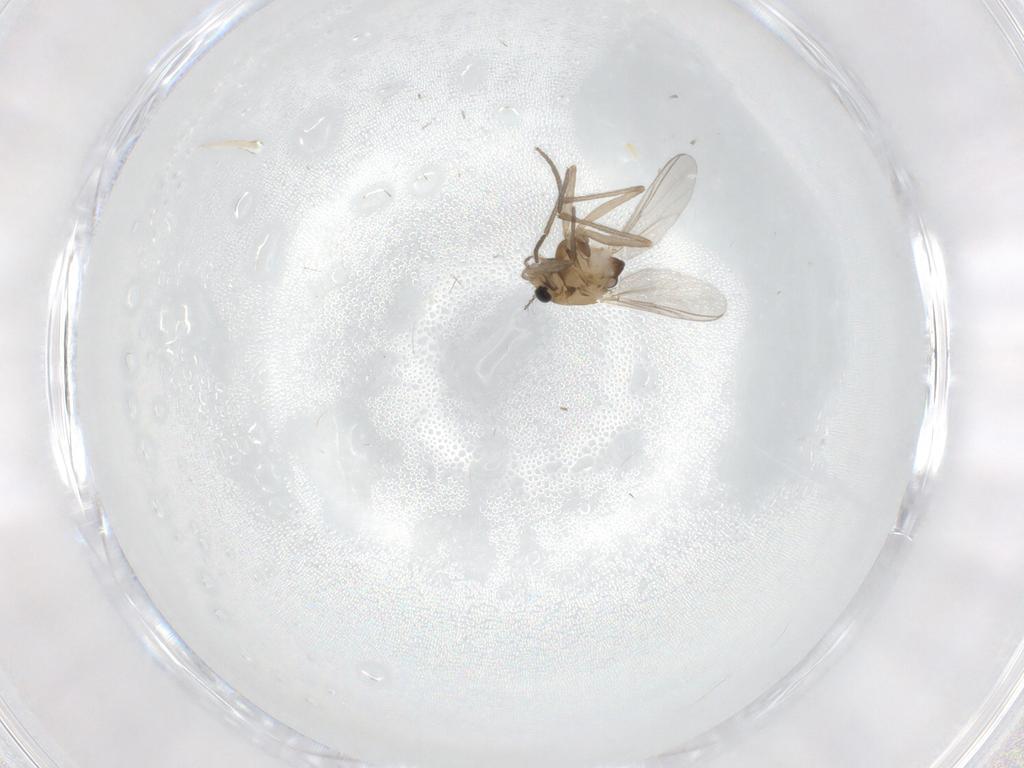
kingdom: Animalia
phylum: Arthropoda
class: Insecta
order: Diptera
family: Chironomidae
